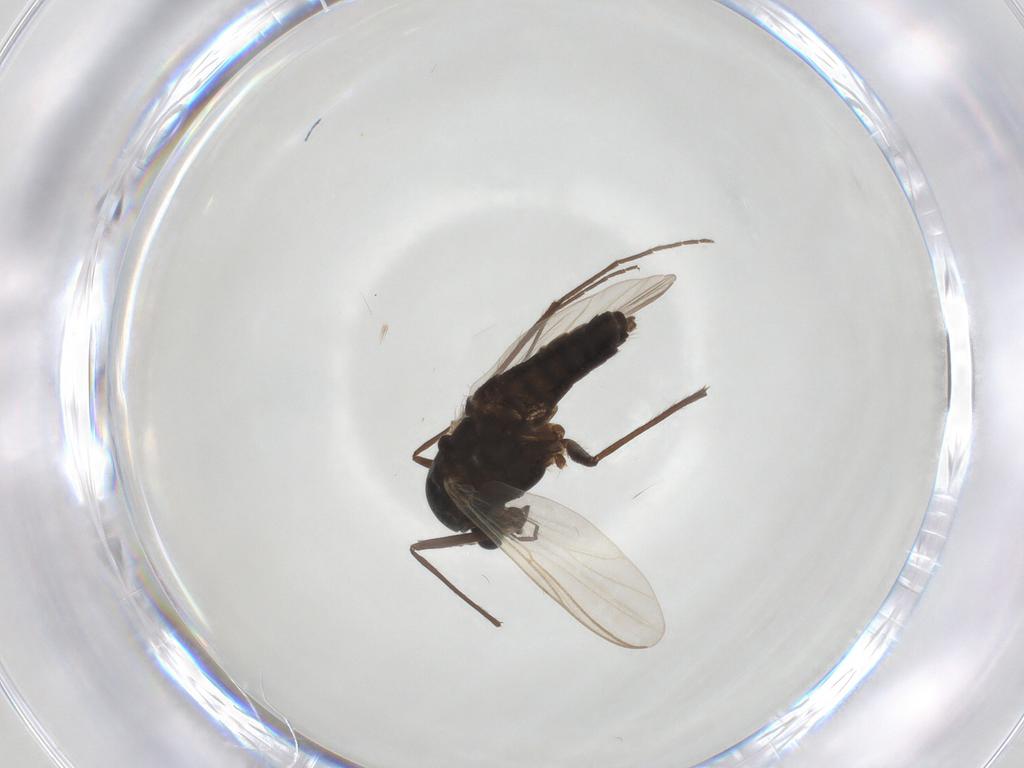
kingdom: Animalia
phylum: Arthropoda
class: Insecta
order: Diptera
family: Chironomidae
